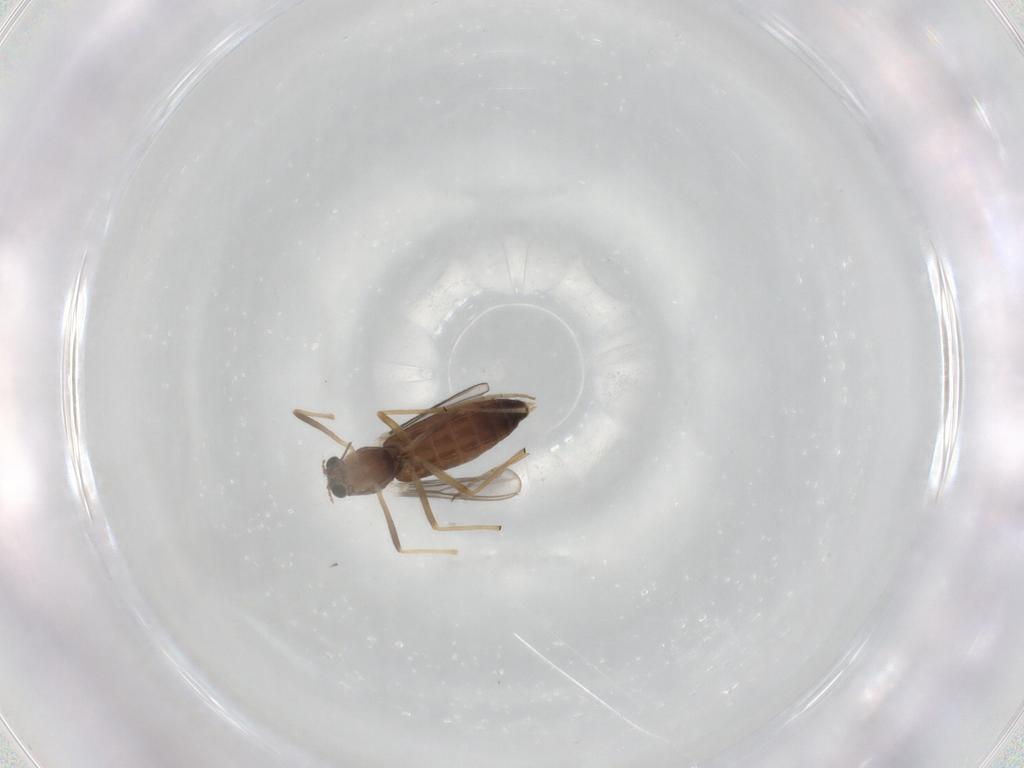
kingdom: Animalia
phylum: Arthropoda
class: Insecta
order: Diptera
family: Chironomidae
